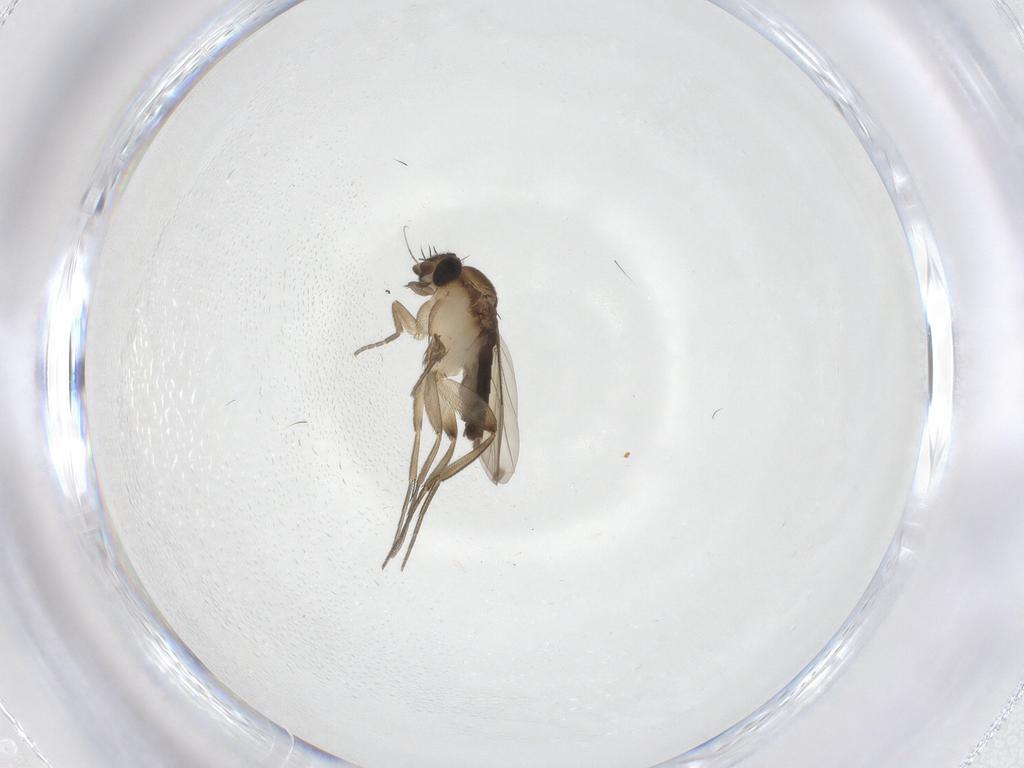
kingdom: Animalia
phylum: Arthropoda
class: Insecta
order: Diptera
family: Phoridae
